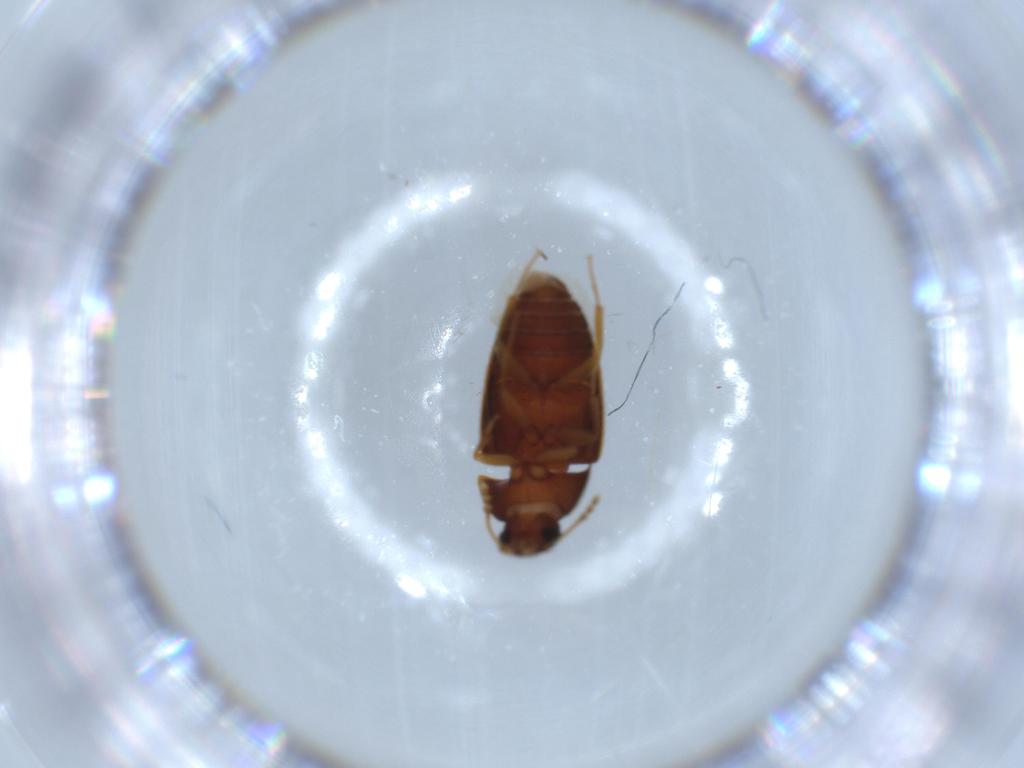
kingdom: Animalia
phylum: Arthropoda
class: Insecta
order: Coleoptera
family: Mycetophagidae
